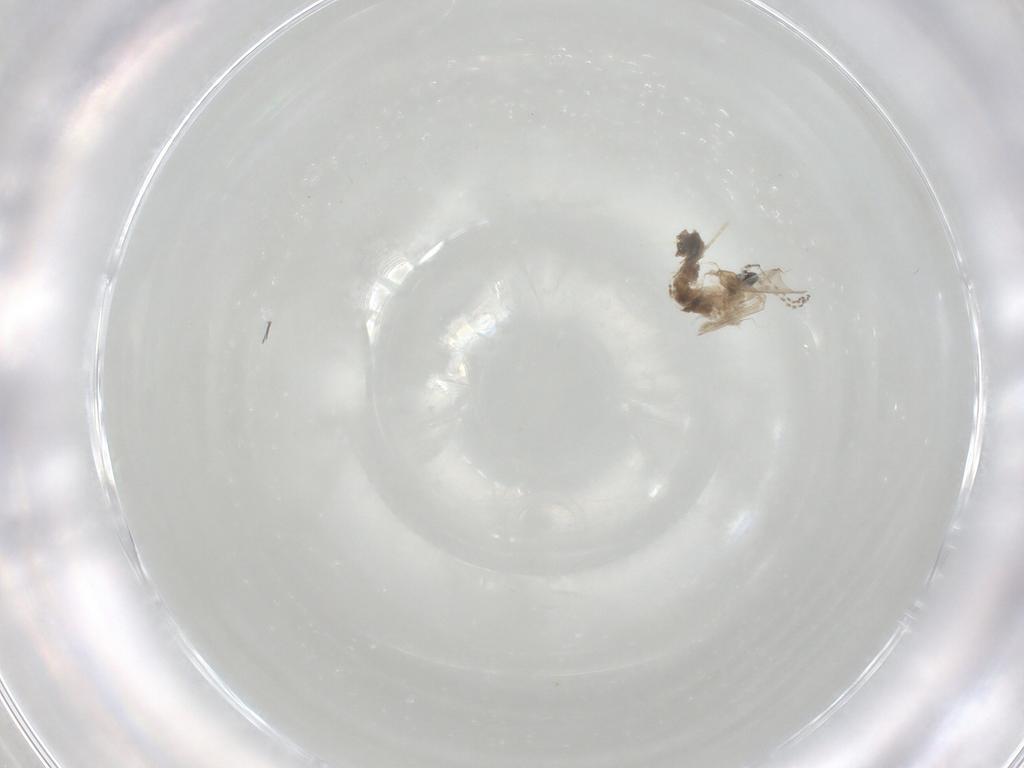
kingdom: Animalia
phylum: Arthropoda
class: Insecta
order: Diptera
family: Cecidomyiidae
